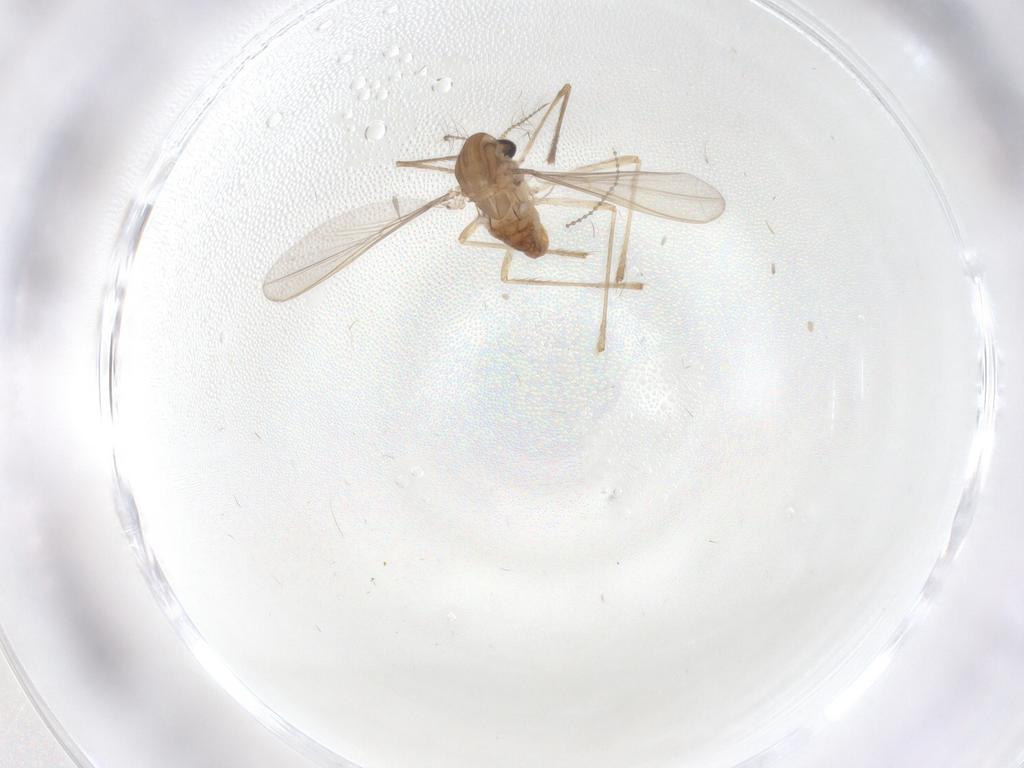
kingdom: Animalia
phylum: Arthropoda
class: Insecta
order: Diptera
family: Chironomidae
